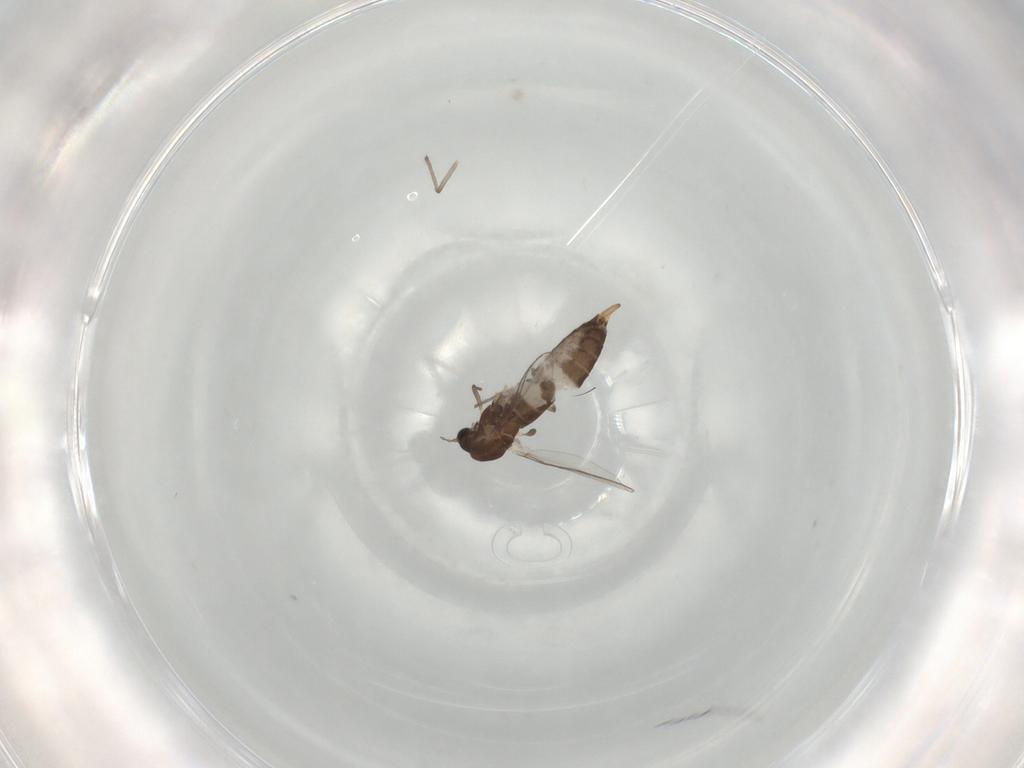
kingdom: Animalia
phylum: Arthropoda
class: Insecta
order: Diptera
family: Chironomidae
